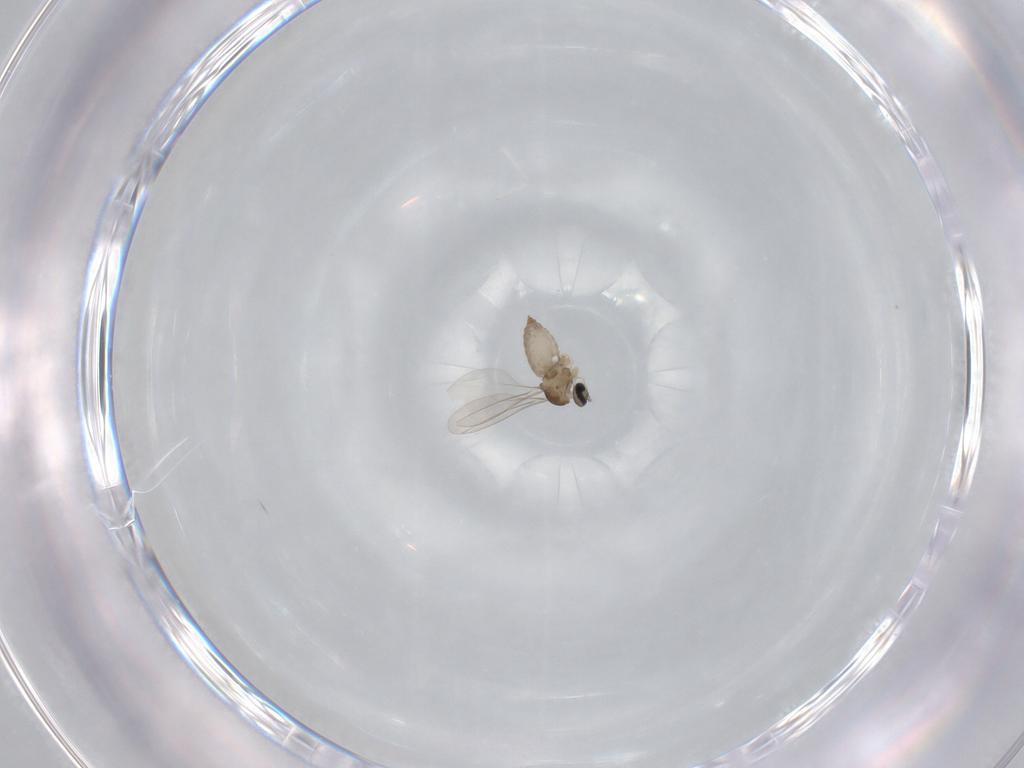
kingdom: Animalia
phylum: Arthropoda
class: Insecta
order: Diptera
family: Cecidomyiidae
